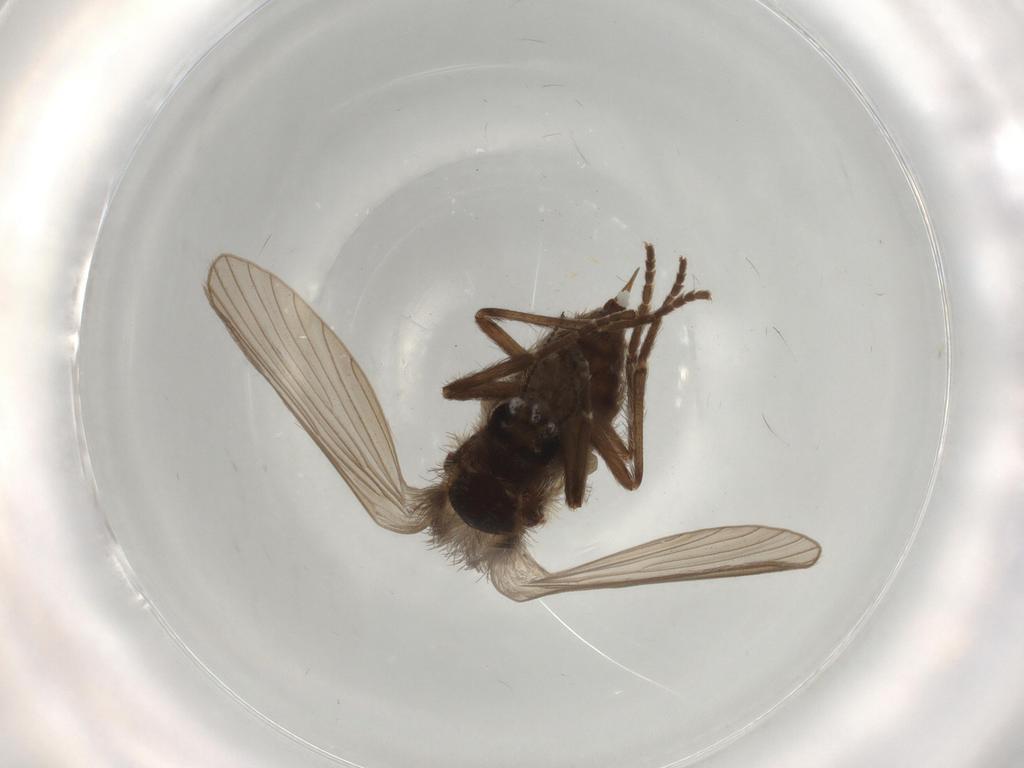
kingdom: Animalia
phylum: Arthropoda
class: Insecta
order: Diptera
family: Psychodidae
